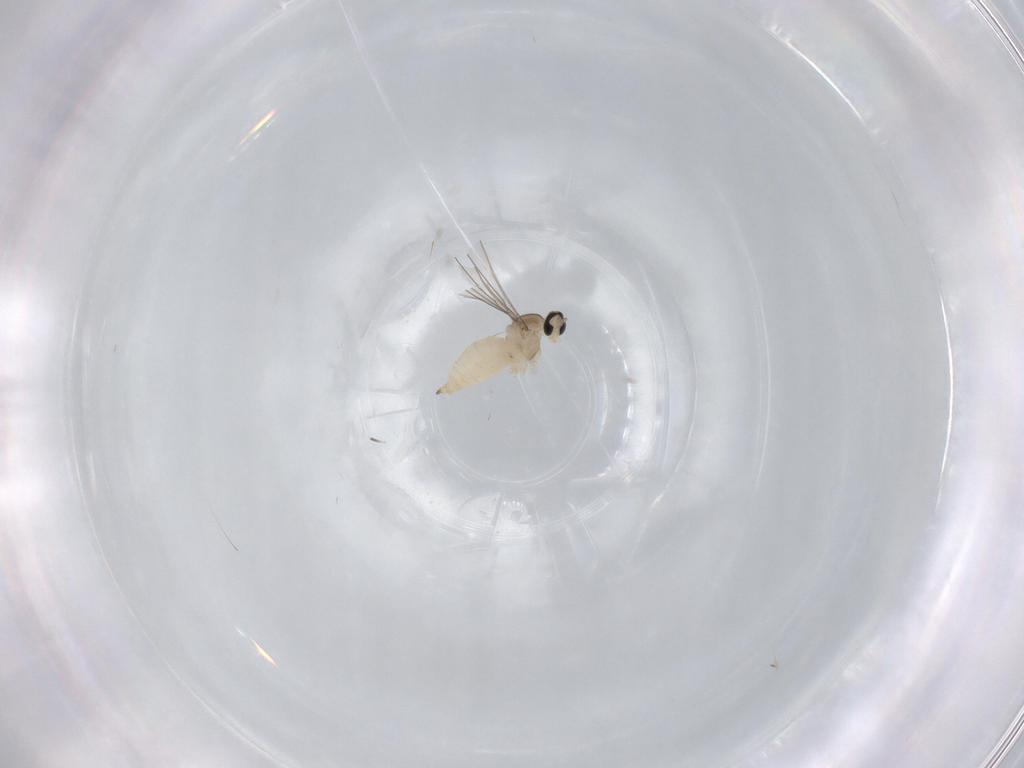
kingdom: Animalia
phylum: Arthropoda
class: Insecta
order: Diptera
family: Cecidomyiidae
